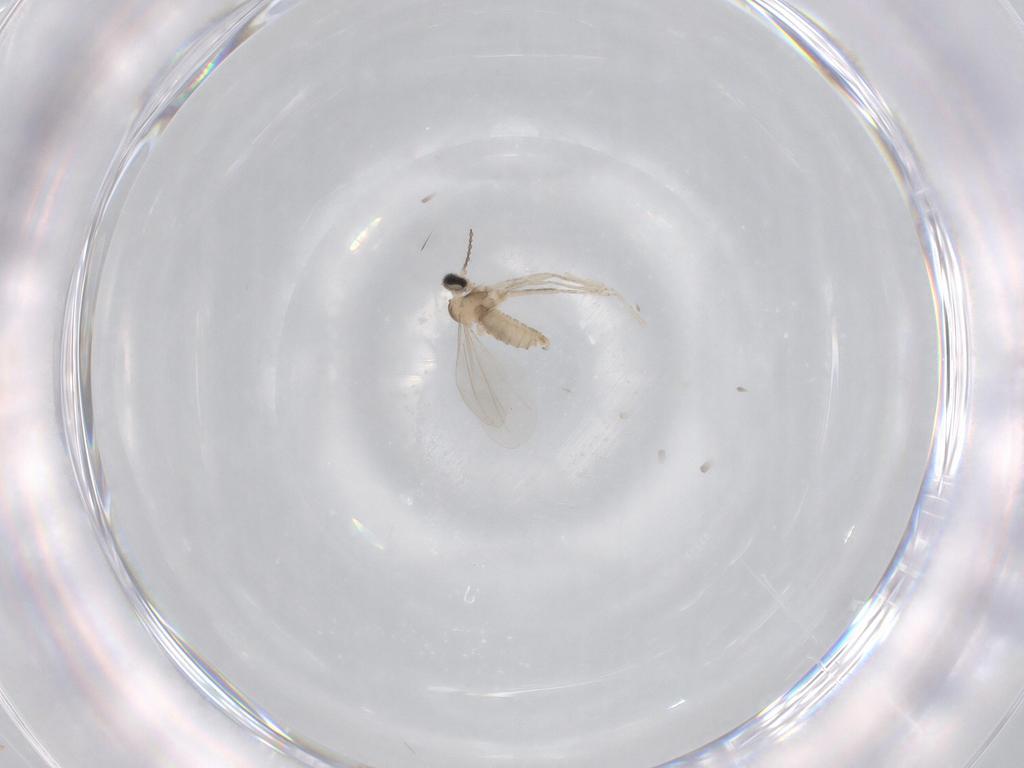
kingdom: Animalia
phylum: Arthropoda
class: Insecta
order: Diptera
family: Cecidomyiidae
